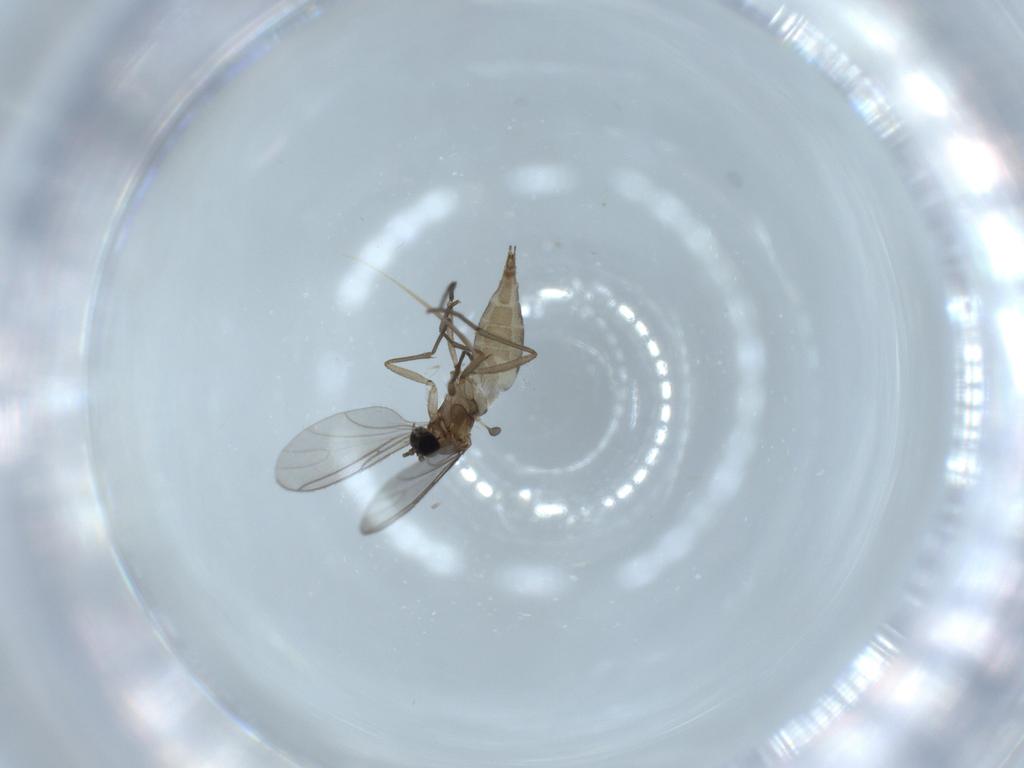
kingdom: Animalia
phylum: Arthropoda
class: Insecta
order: Diptera
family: Sciaridae
